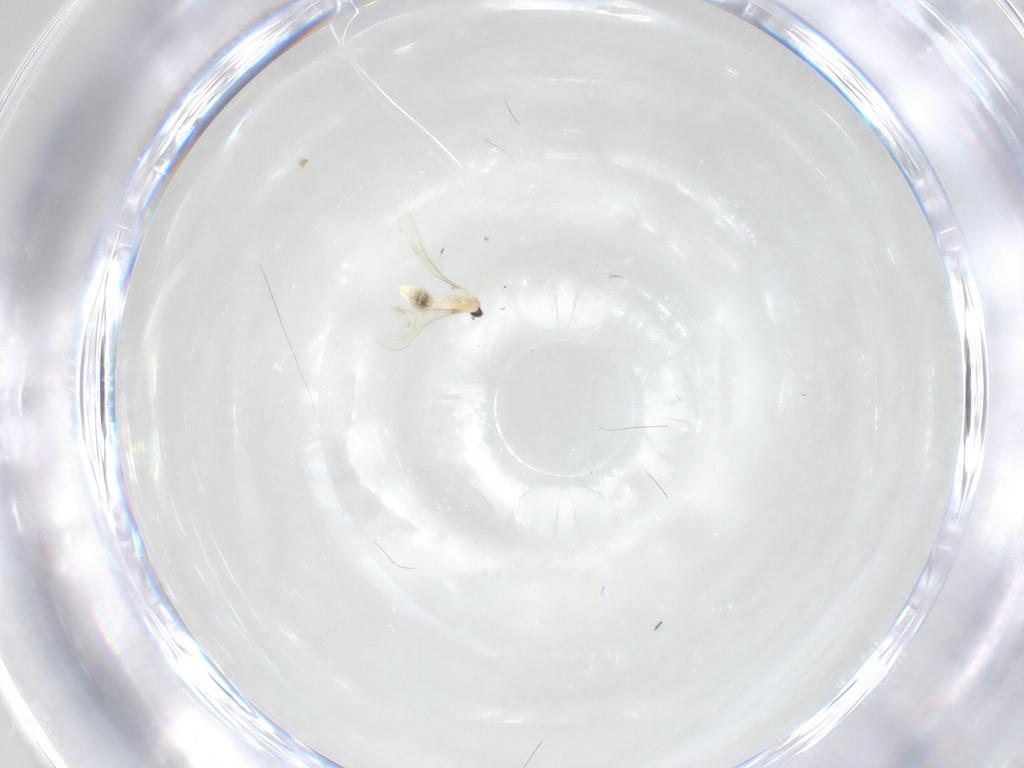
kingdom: Animalia
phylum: Arthropoda
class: Insecta
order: Diptera
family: Cecidomyiidae
